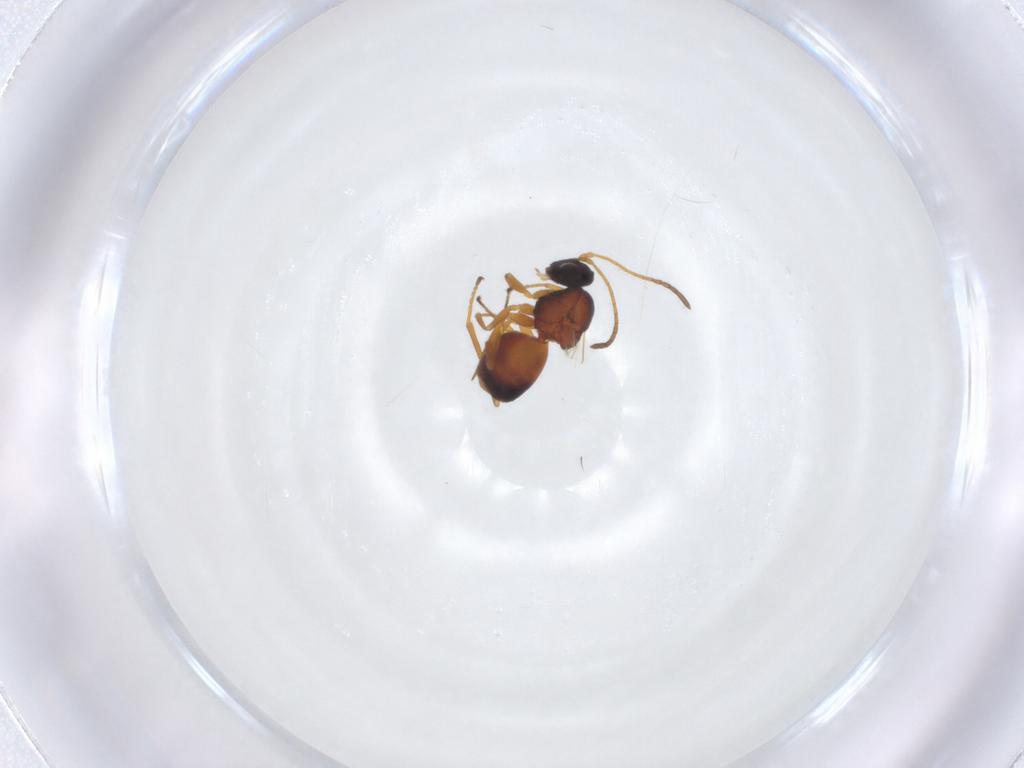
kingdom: Animalia
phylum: Arthropoda
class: Insecta
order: Hymenoptera
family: Cynipidae
